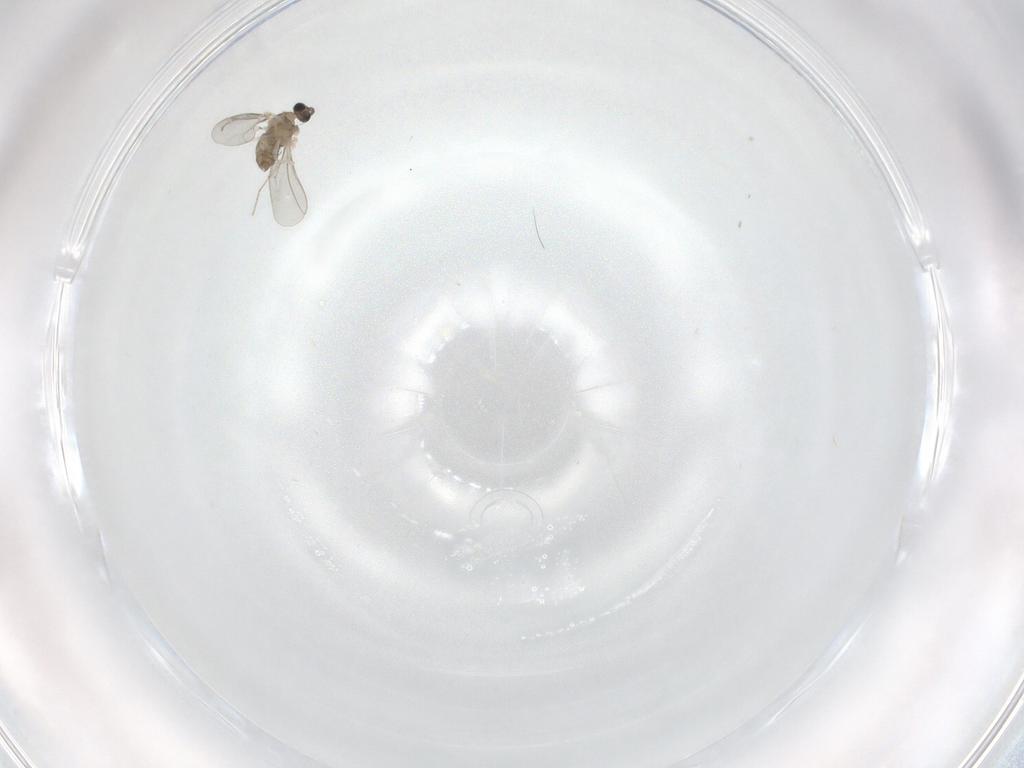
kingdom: Animalia
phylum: Arthropoda
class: Insecta
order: Diptera
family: Cecidomyiidae
